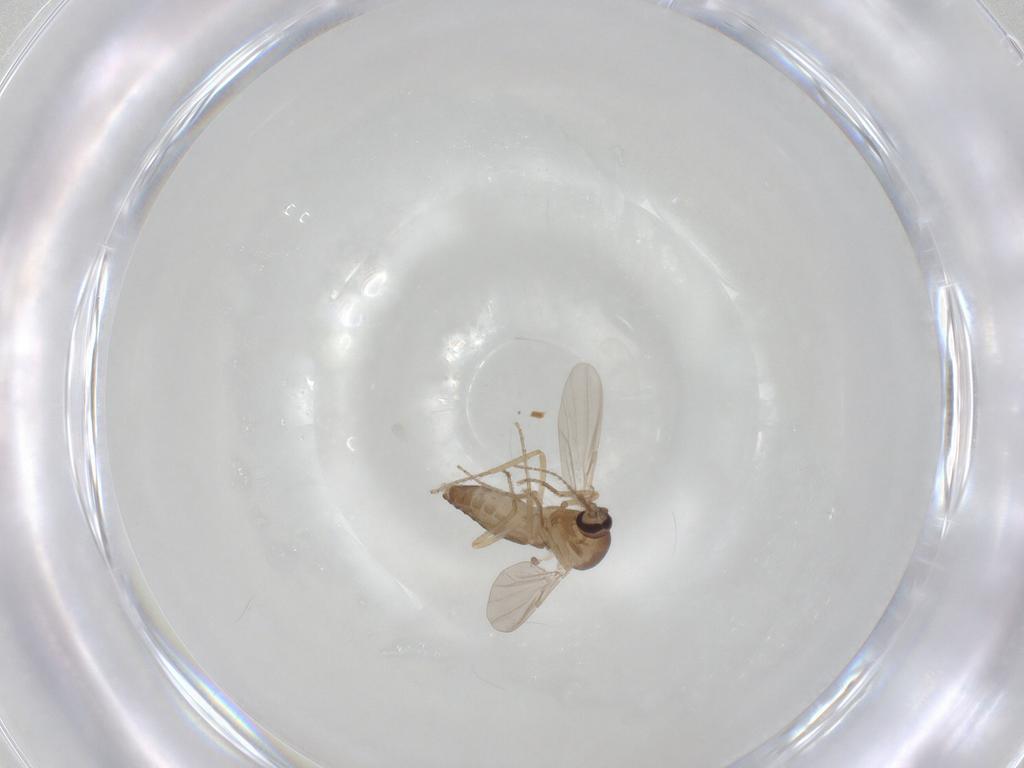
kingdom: Animalia
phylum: Arthropoda
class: Insecta
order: Diptera
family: Ceratopogonidae
